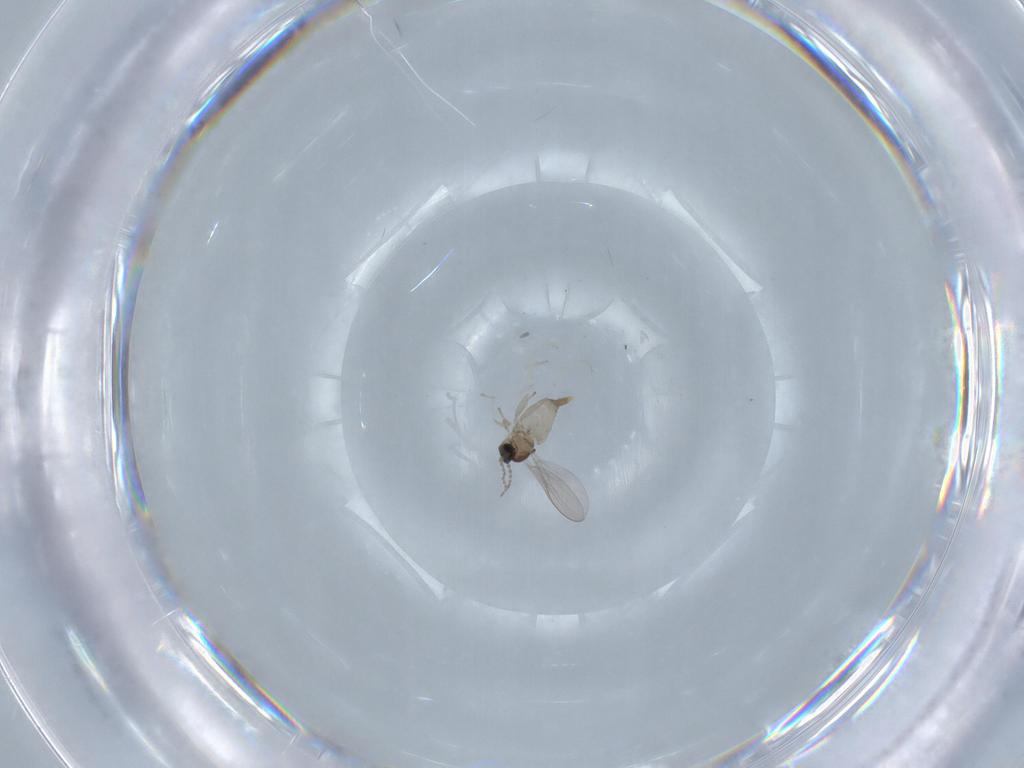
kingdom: Animalia
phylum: Arthropoda
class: Insecta
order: Diptera
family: Cecidomyiidae
